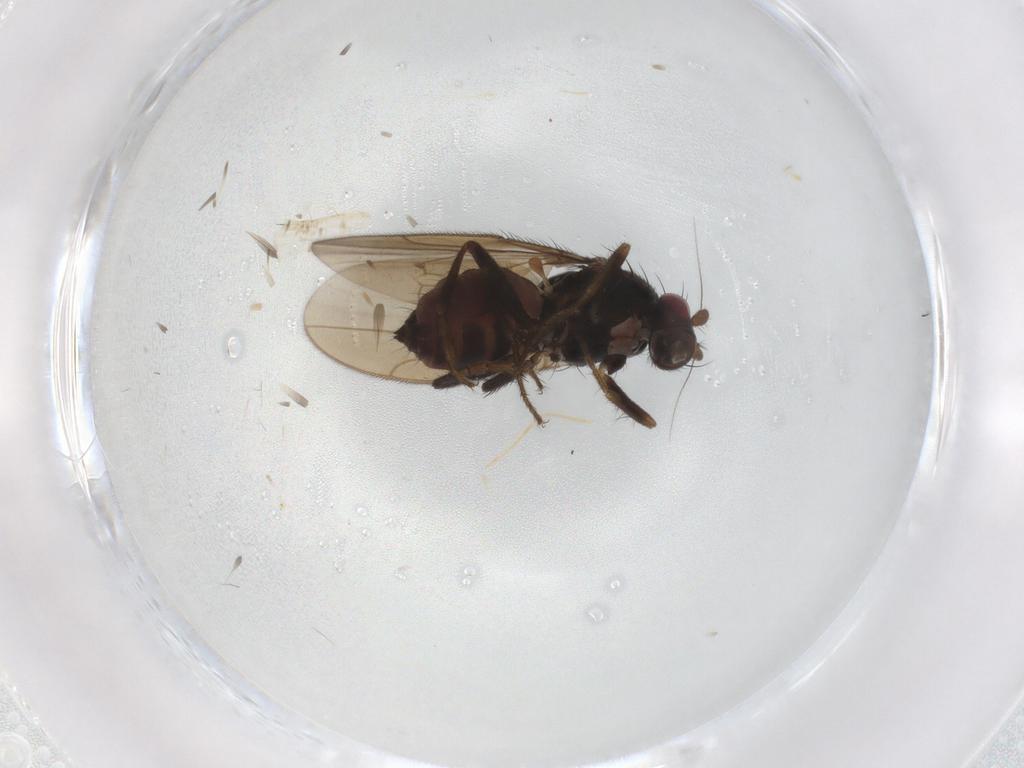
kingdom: Animalia
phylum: Arthropoda
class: Insecta
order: Diptera
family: Sphaeroceridae
